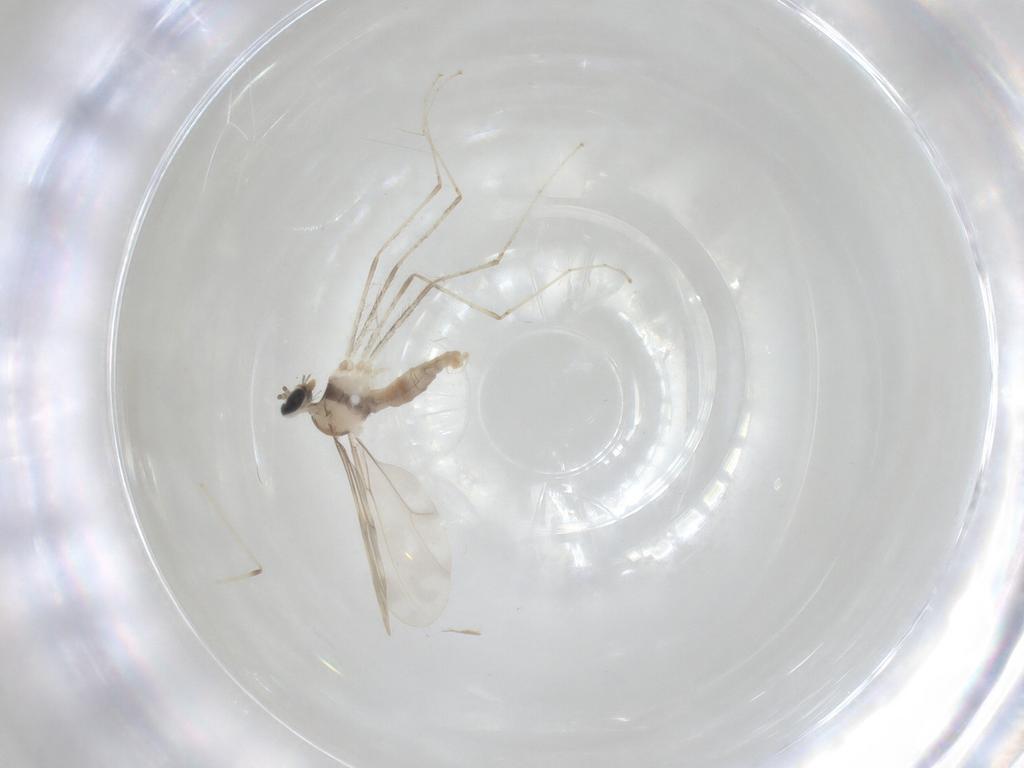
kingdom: Animalia
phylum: Arthropoda
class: Insecta
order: Diptera
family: Cecidomyiidae
